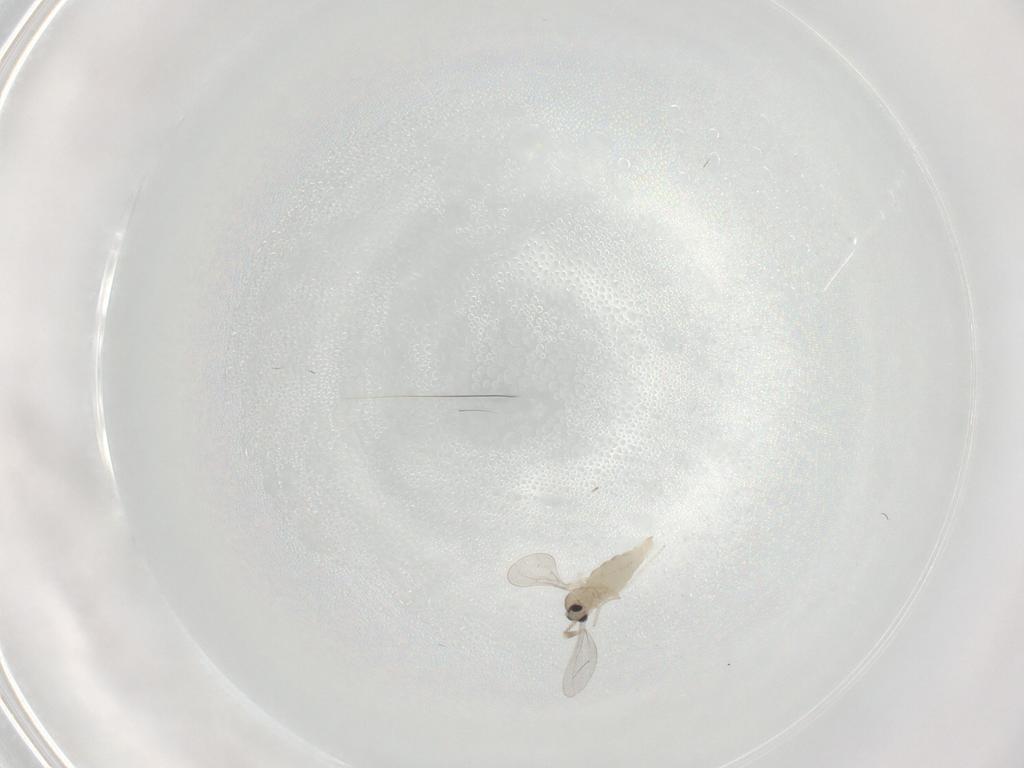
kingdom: Animalia
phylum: Arthropoda
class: Insecta
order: Diptera
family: Cecidomyiidae
